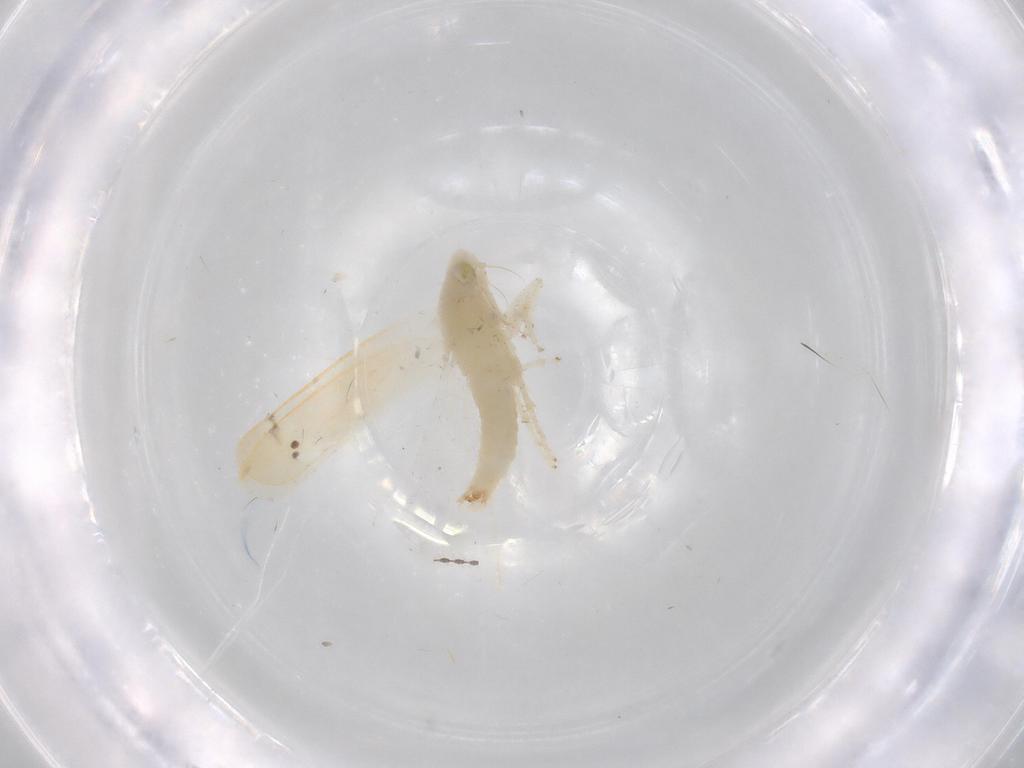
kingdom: Animalia
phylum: Arthropoda
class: Insecta
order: Hemiptera
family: Cicadellidae
